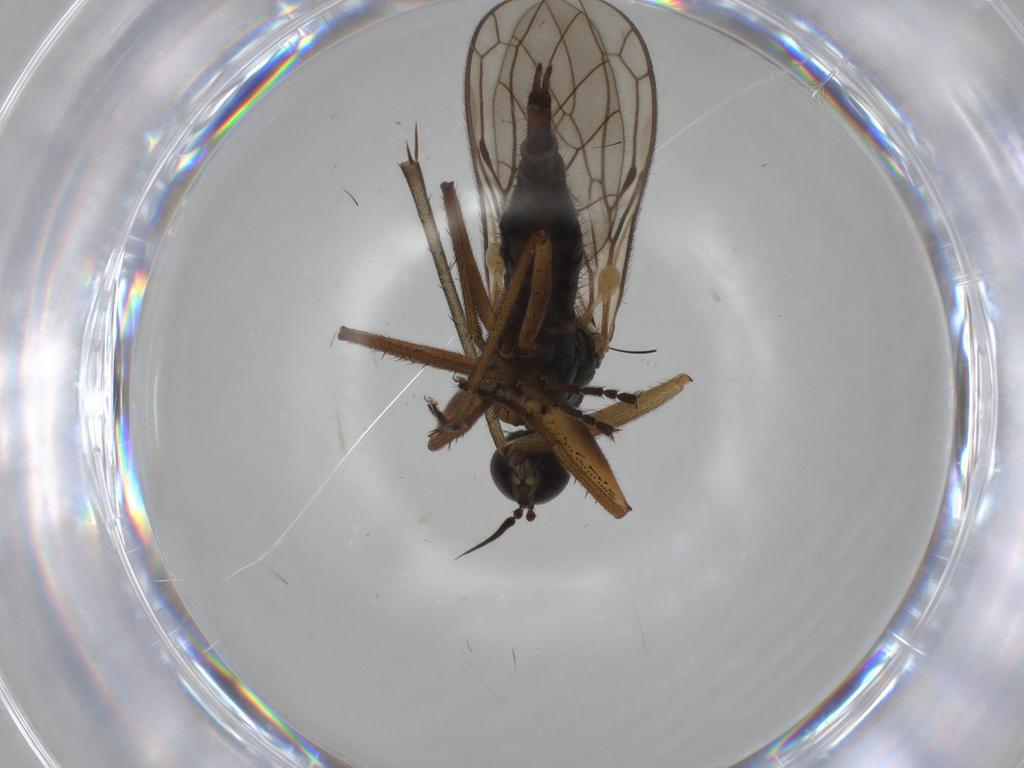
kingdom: Animalia
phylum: Arthropoda
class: Insecta
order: Diptera
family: Empididae
